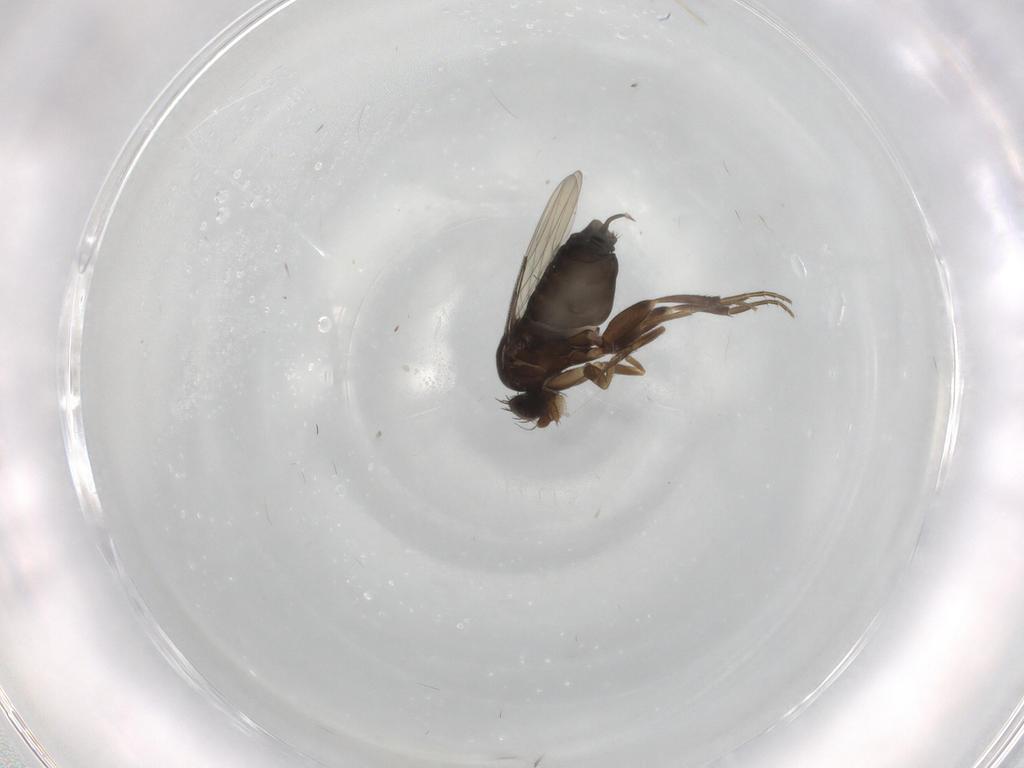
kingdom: Animalia
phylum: Arthropoda
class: Insecta
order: Diptera
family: Phoridae
